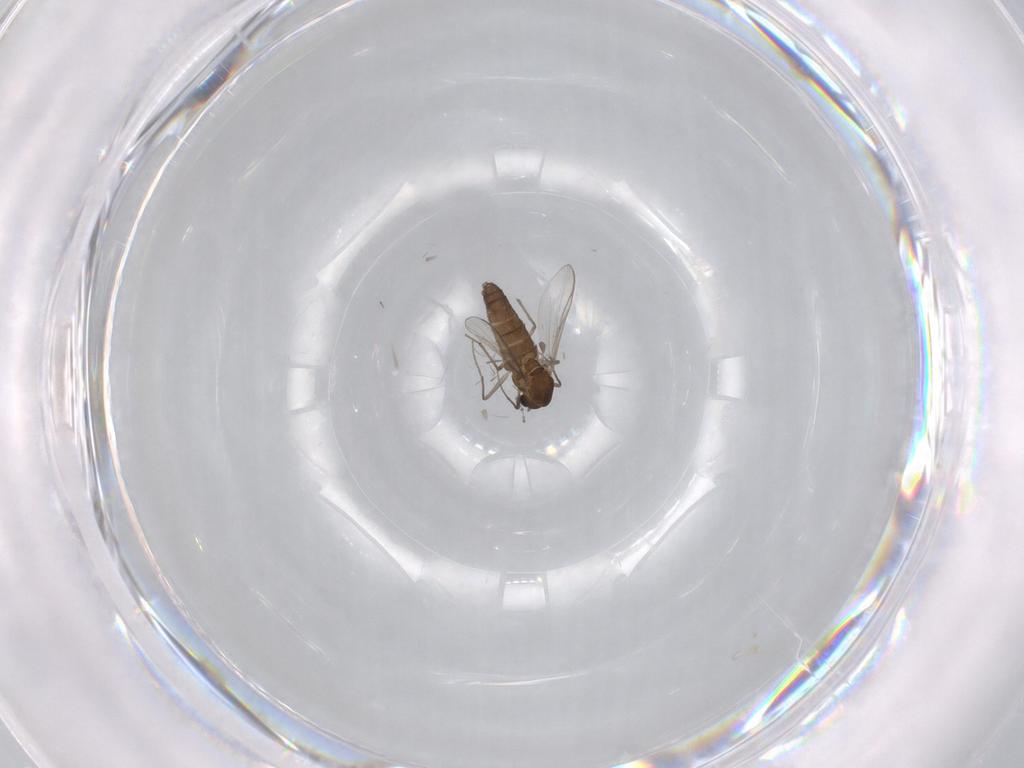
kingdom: Animalia
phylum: Arthropoda
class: Insecta
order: Diptera
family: Chironomidae
